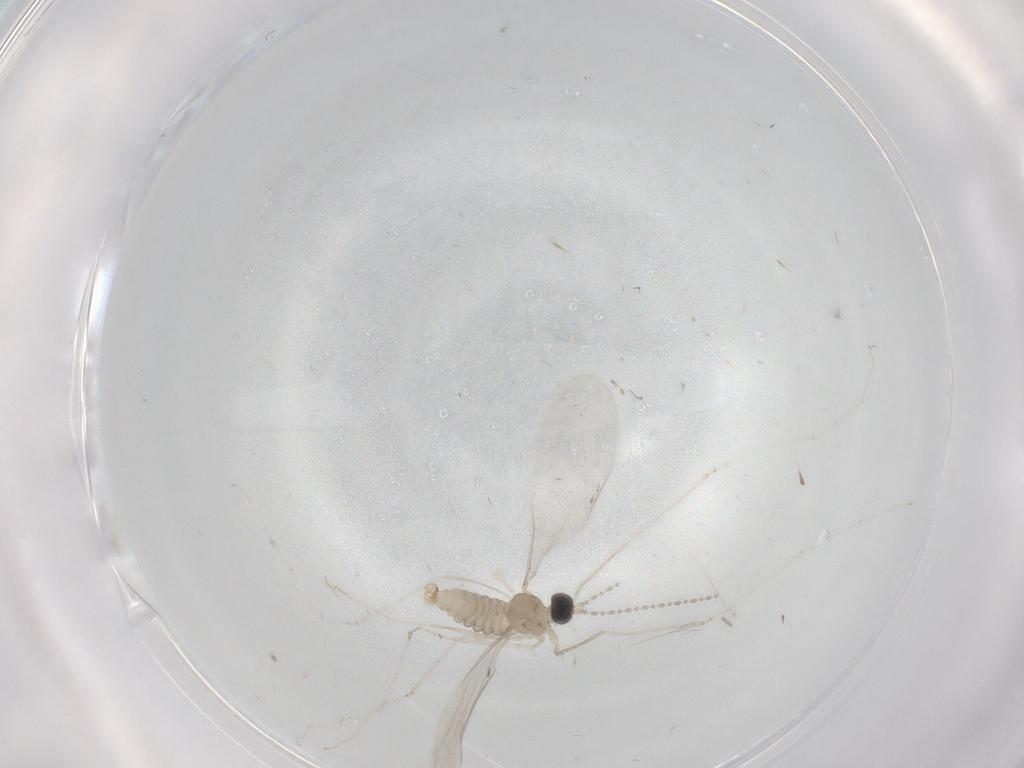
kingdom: Animalia
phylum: Arthropoda
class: Insecta
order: Diptera
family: Cecidomyiidae
